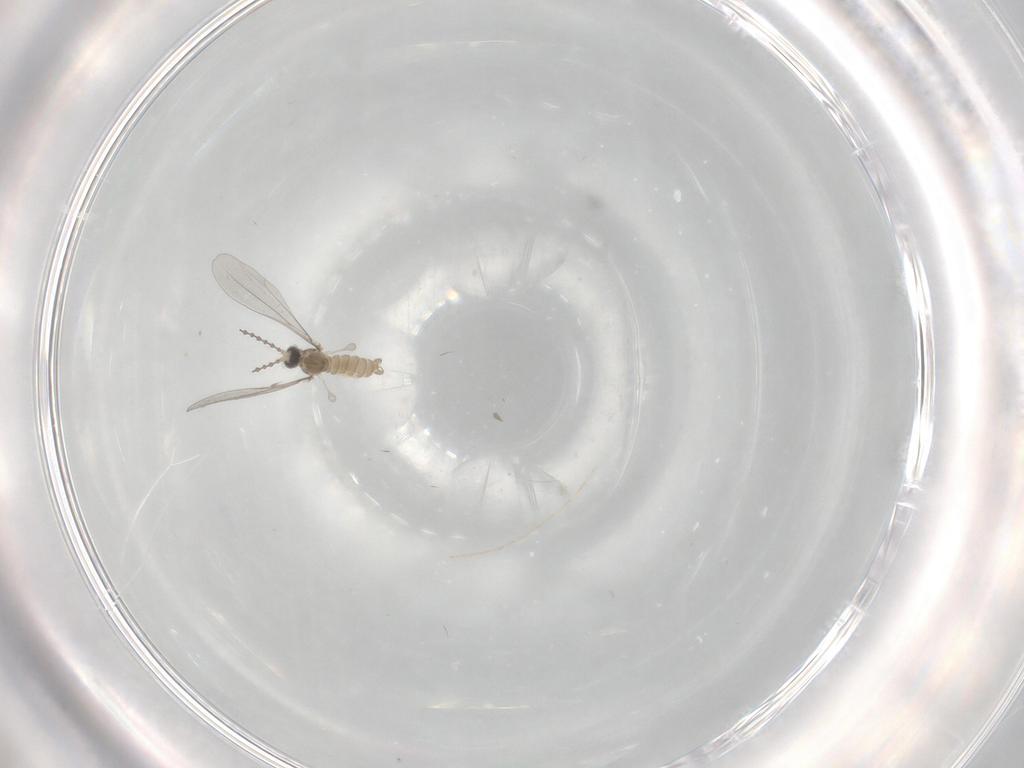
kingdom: Animalia
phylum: Arthropoda
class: Insecta
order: Diptera
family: Cecidomyiidae
